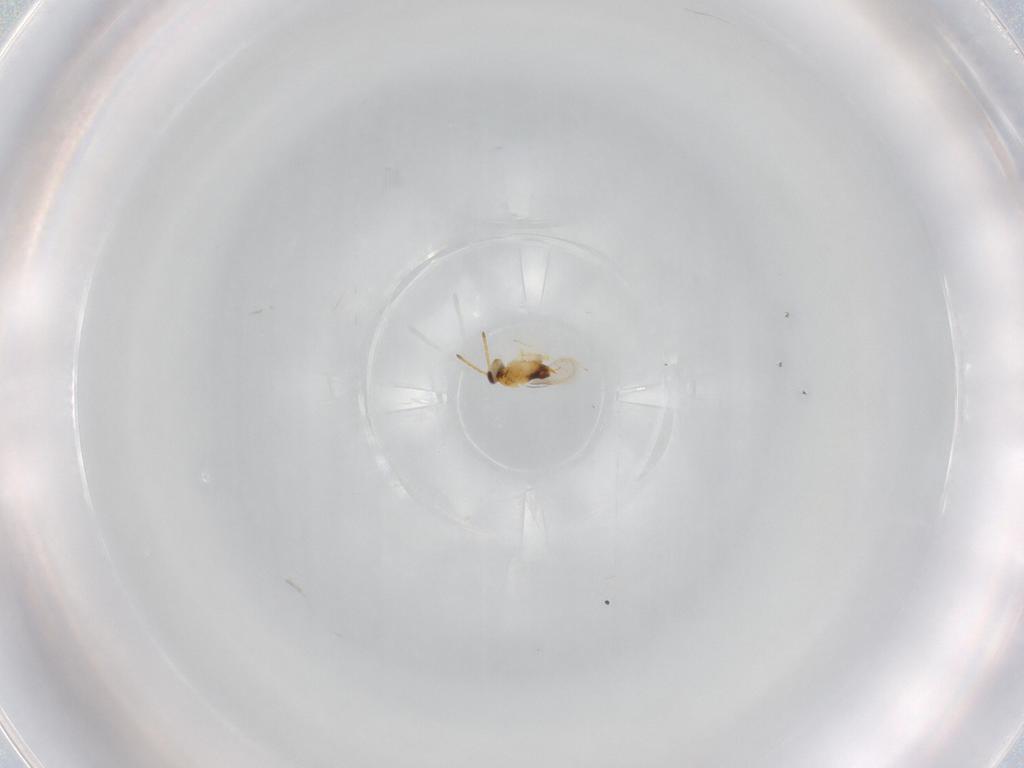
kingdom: Animalia
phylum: Arthropoda
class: Insecta
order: Hymenoptera
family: Aphelinidae
